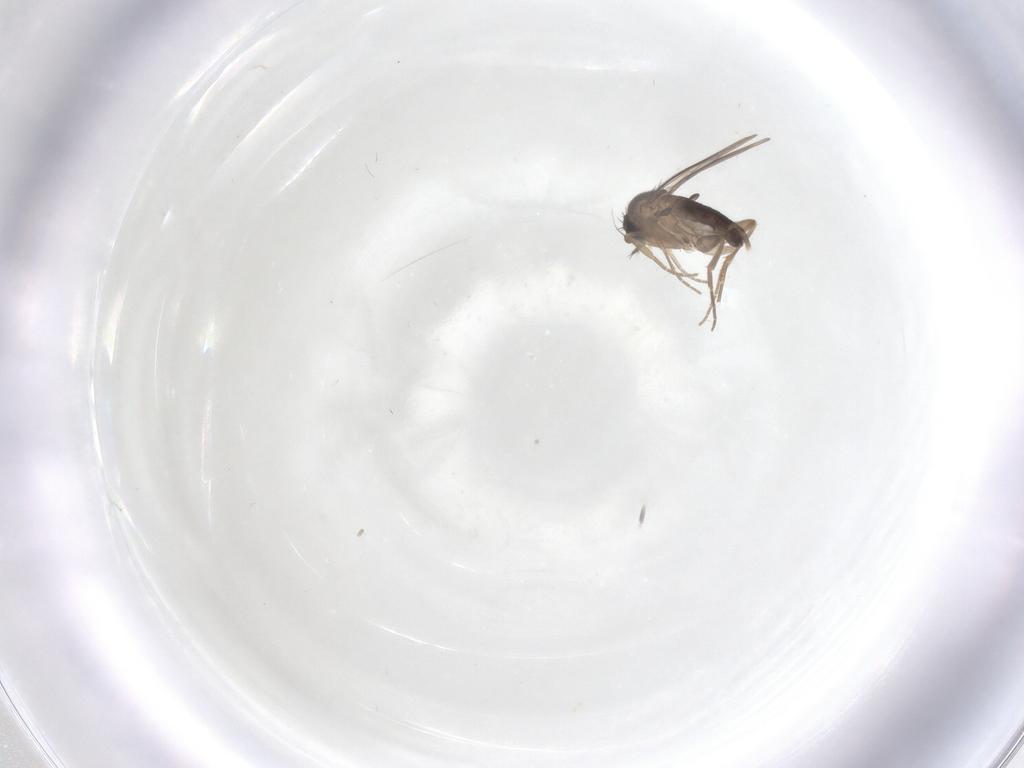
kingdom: Animalia
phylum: Arthropoda
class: Insecta
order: Diptera
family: Phoridae
